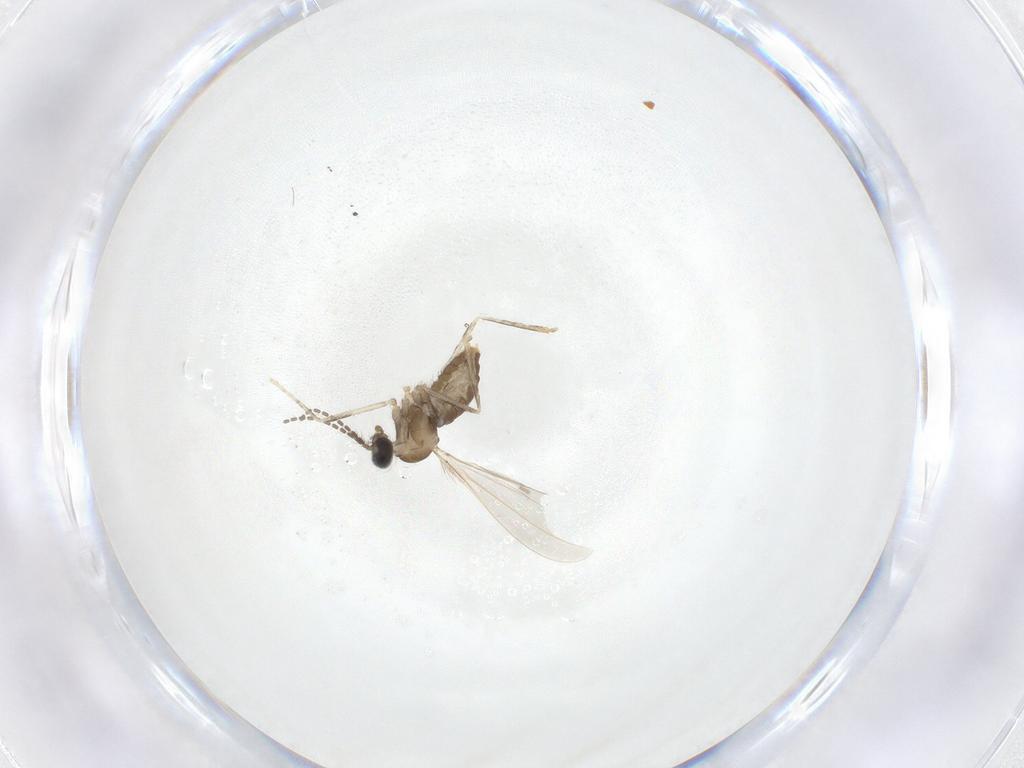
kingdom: Animalia
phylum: Arthropoda
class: Insecta
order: Diptera
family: Cecidomyiidae
